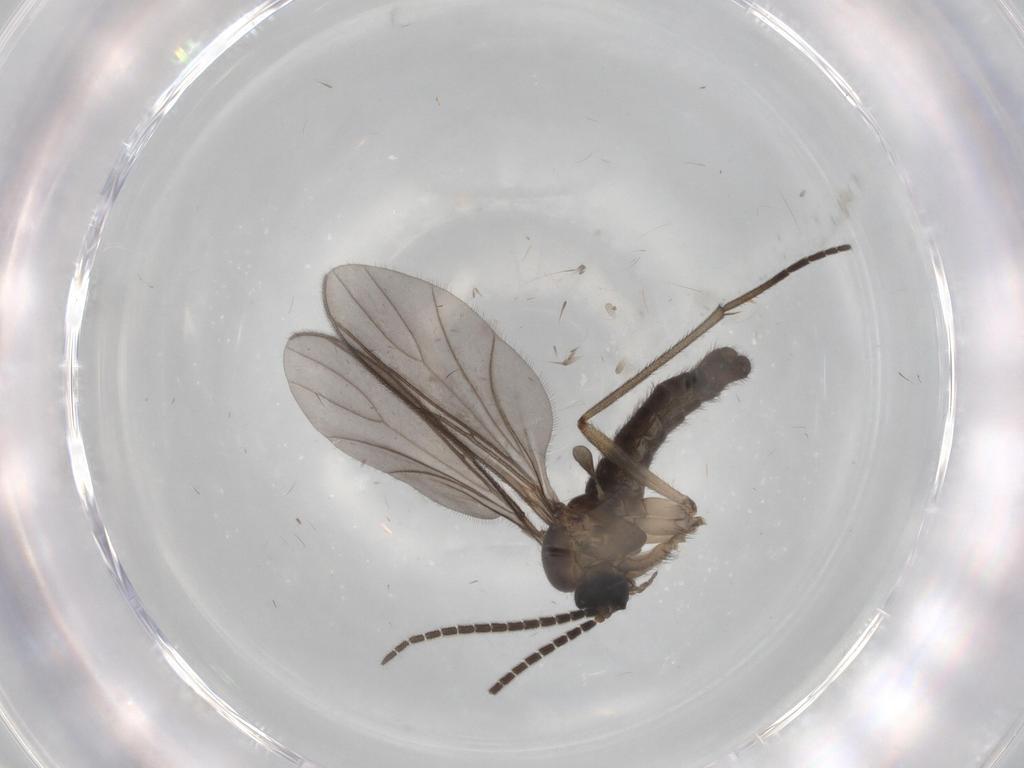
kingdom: Animalia
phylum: Arthropoda
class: Insecta
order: Diptera
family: Sciaridae
